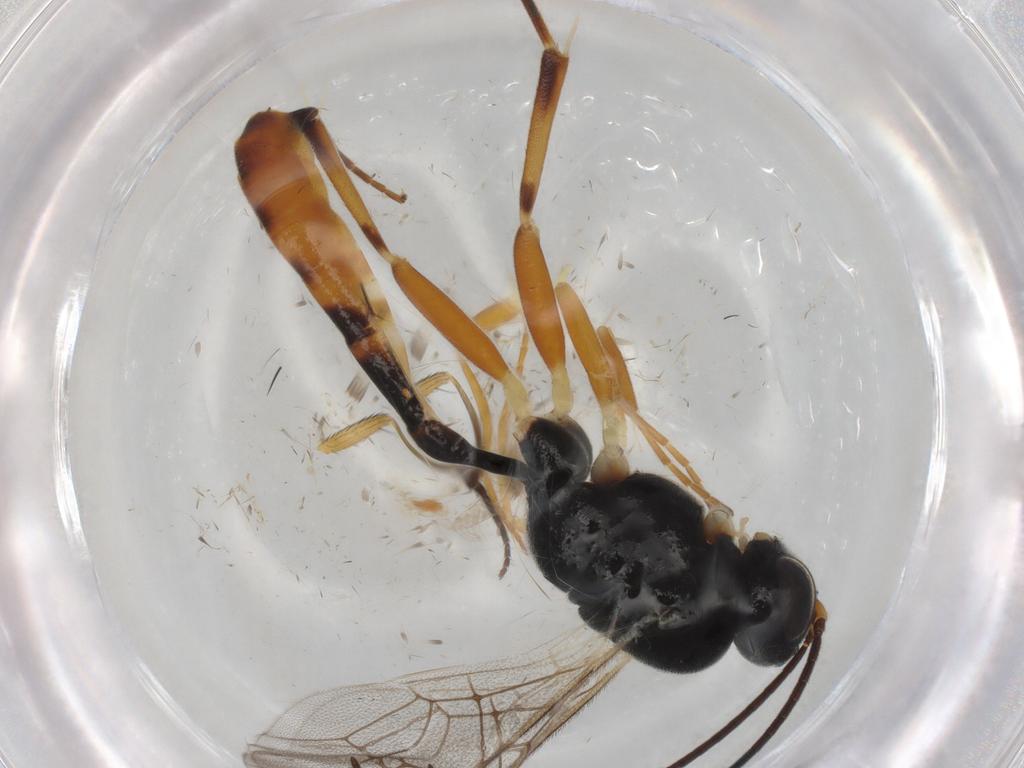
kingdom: Animalia
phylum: Arthropoda
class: Insecta
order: Hymenoptera
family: Ichneumonidae
